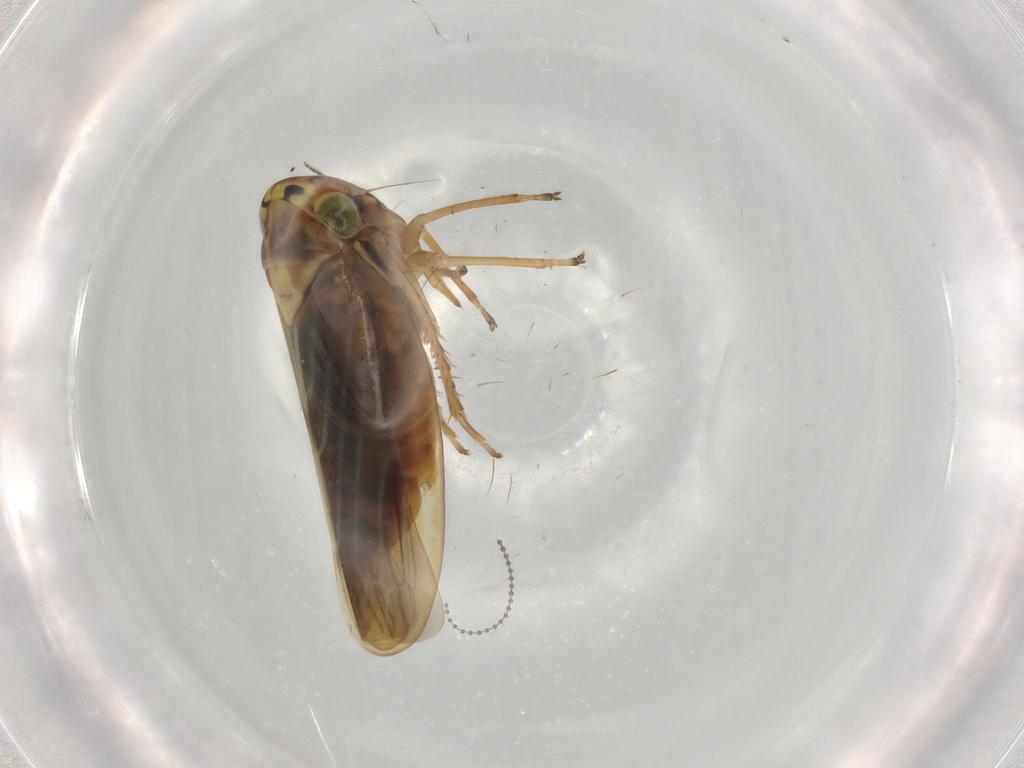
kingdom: Animalia
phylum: Arthropoda
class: Insecta
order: Hemiptera
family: Cicadellidae
